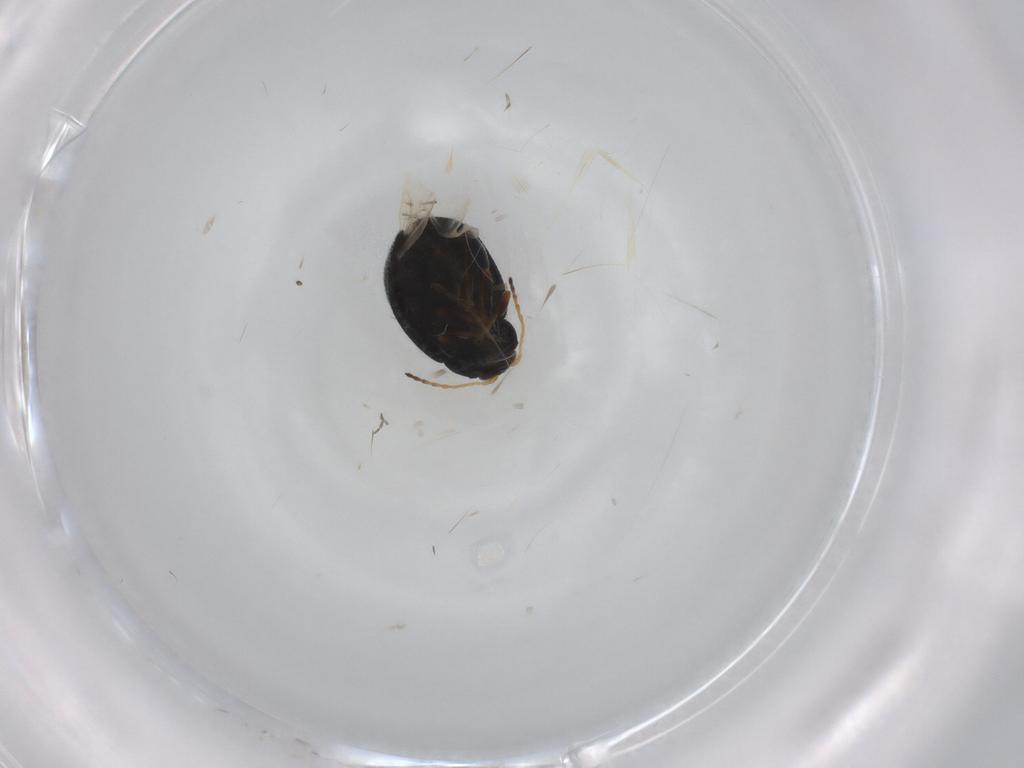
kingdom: Animalia
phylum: Arthropoda
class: Insecta
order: Coleoptera
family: Chrysomelidae
